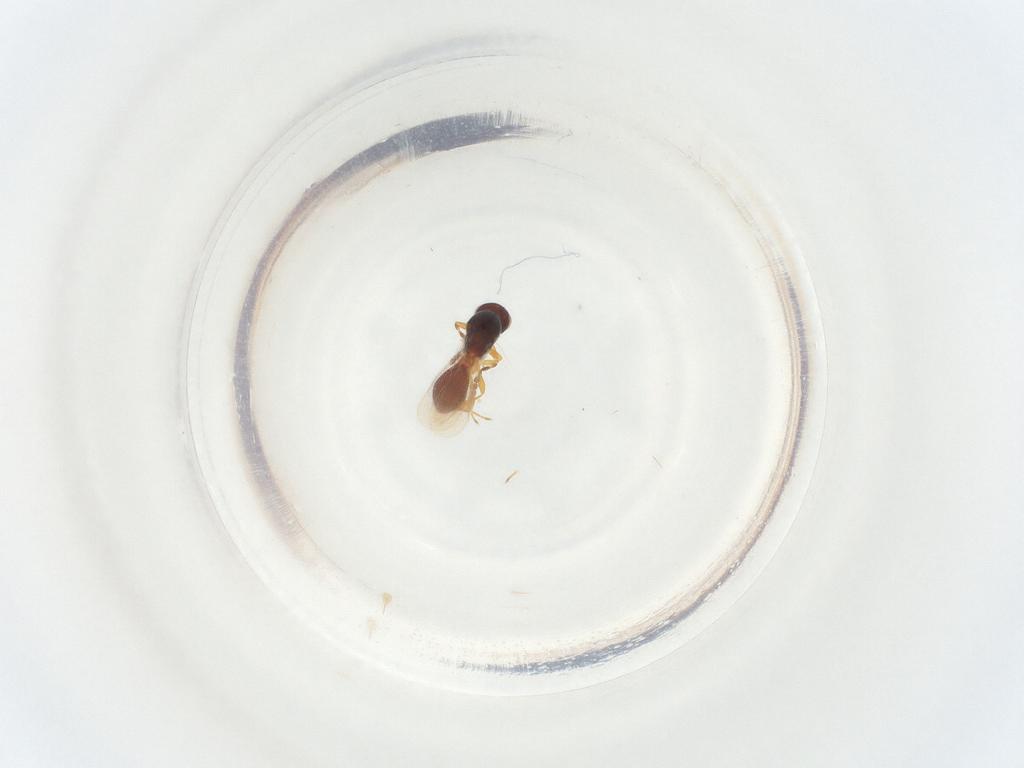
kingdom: Animalia
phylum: Arthropoda
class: Insecta
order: Hymenoptera
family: Platygastridae
